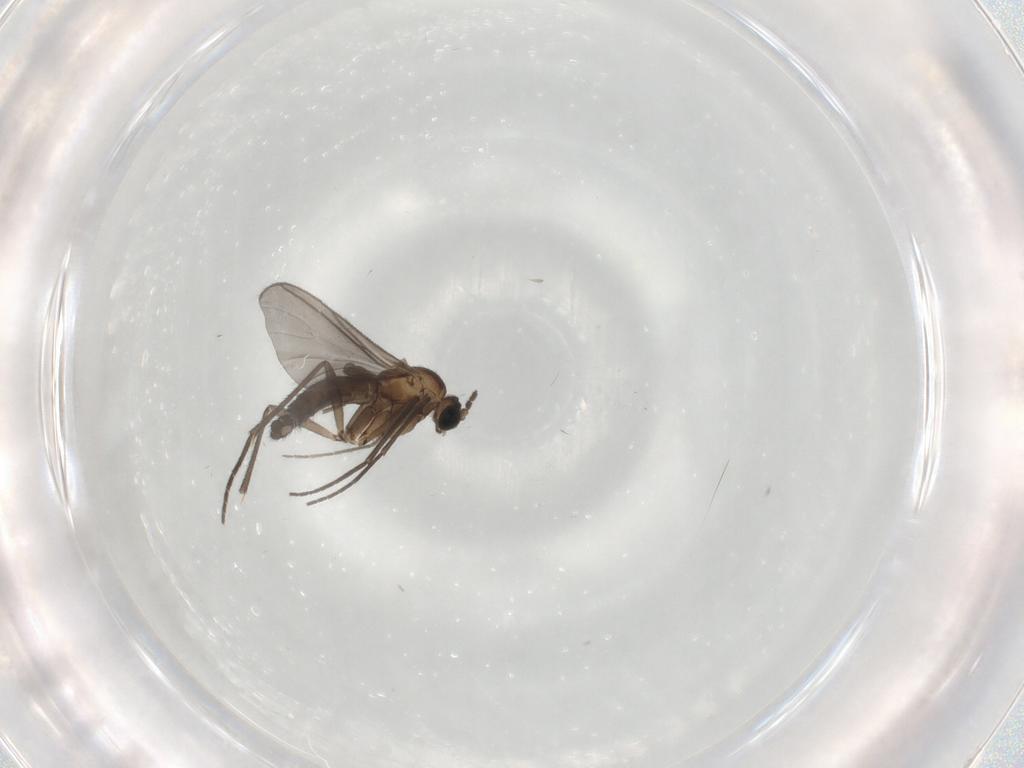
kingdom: Animalia
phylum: Arthropoda
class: Insecta
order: Diptera
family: Sciaridae
